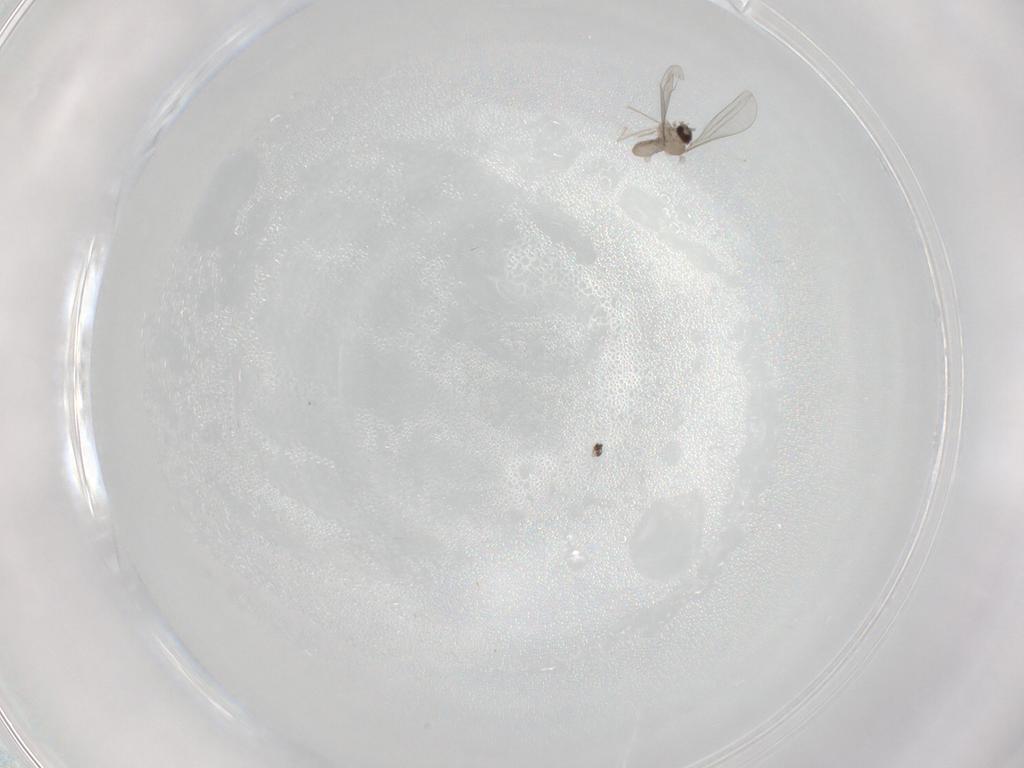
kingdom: Animalia
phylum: Arthropoda
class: Insecta
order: Diptera
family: Cecidomyiidae
